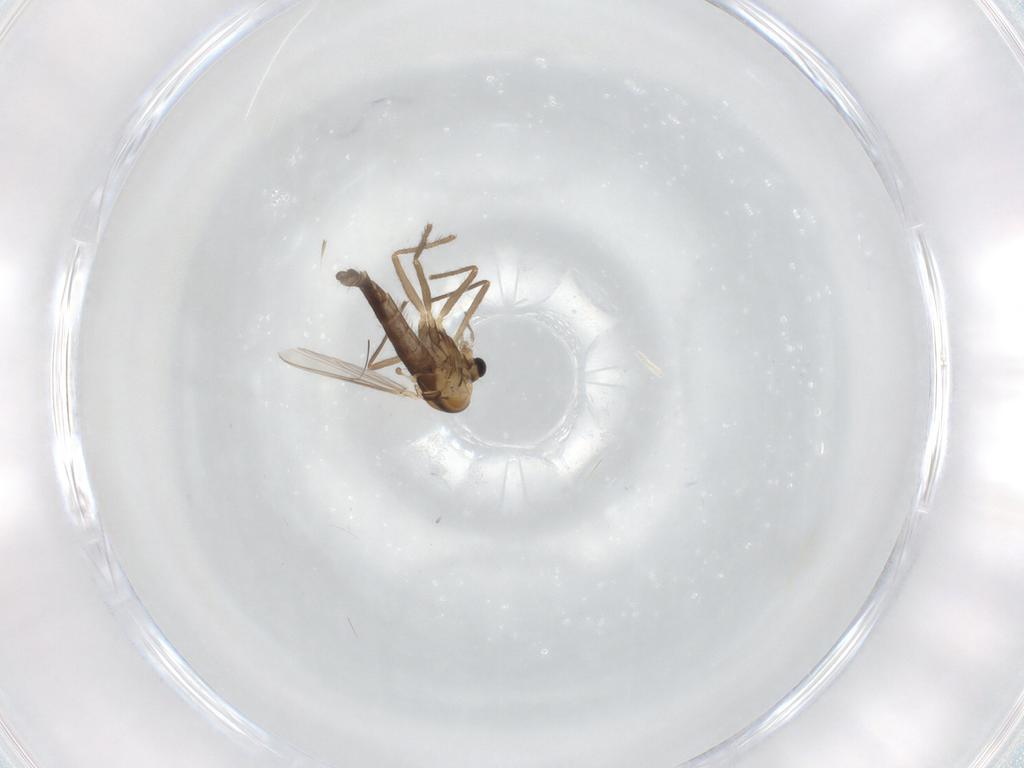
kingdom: Animalia
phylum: Arthropoda
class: Insecta
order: Diptera
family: Chironomidae
